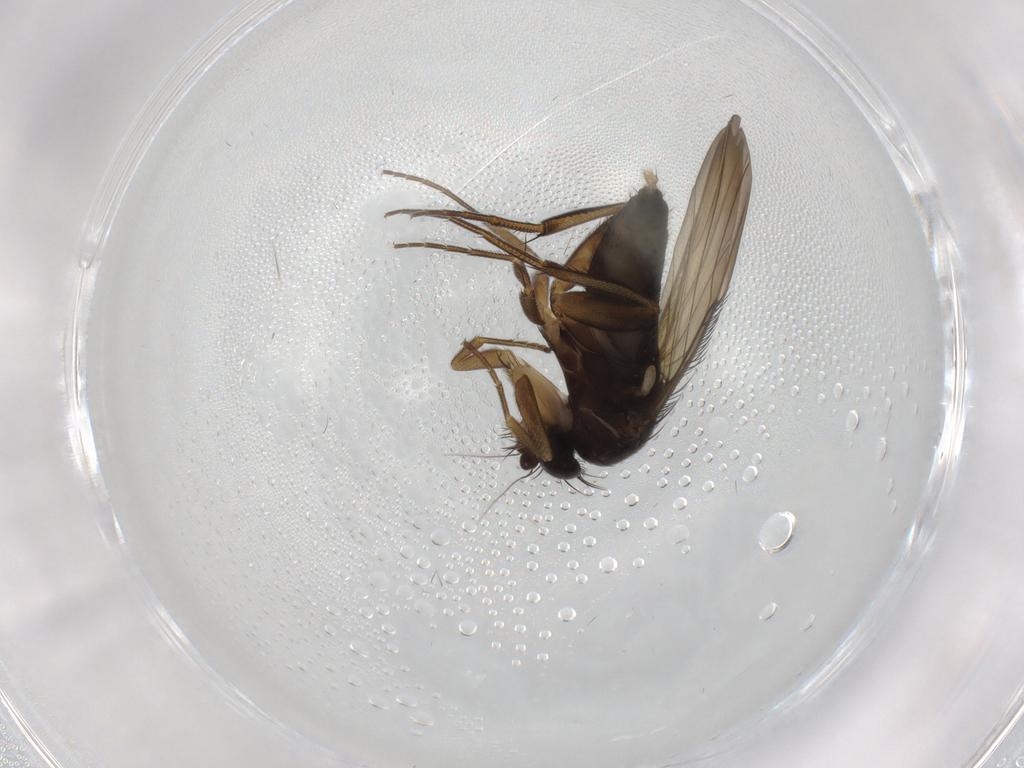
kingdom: Animalia
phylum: Arthropoda
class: Insecta
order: Diptera
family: Phoridae
